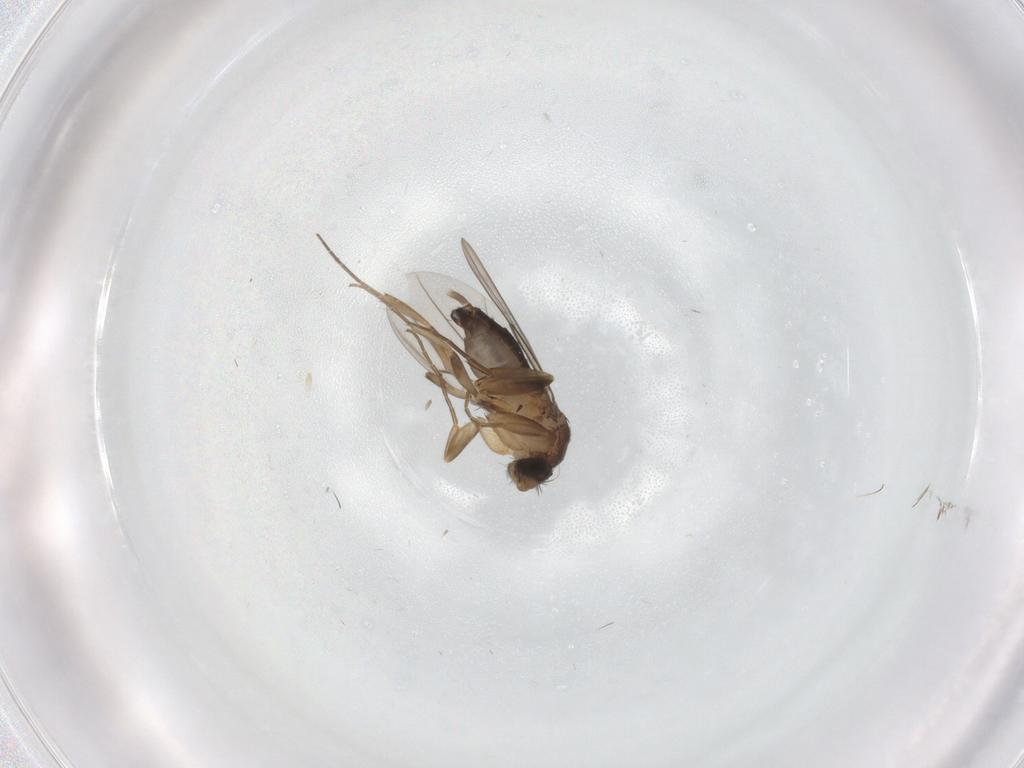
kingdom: Animalia
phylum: Arthropoda
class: Insecta
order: Diptera
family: Phoridae
